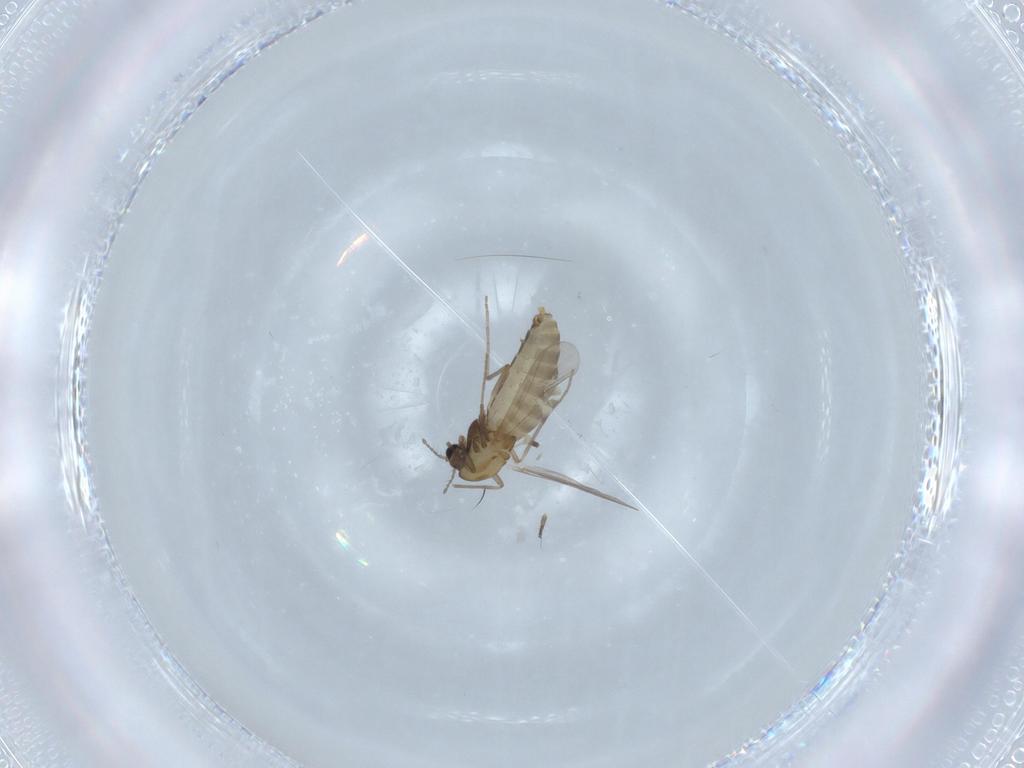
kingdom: Animalia
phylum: Arthropoda
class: Insecta
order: Diptera
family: Chironomidae
